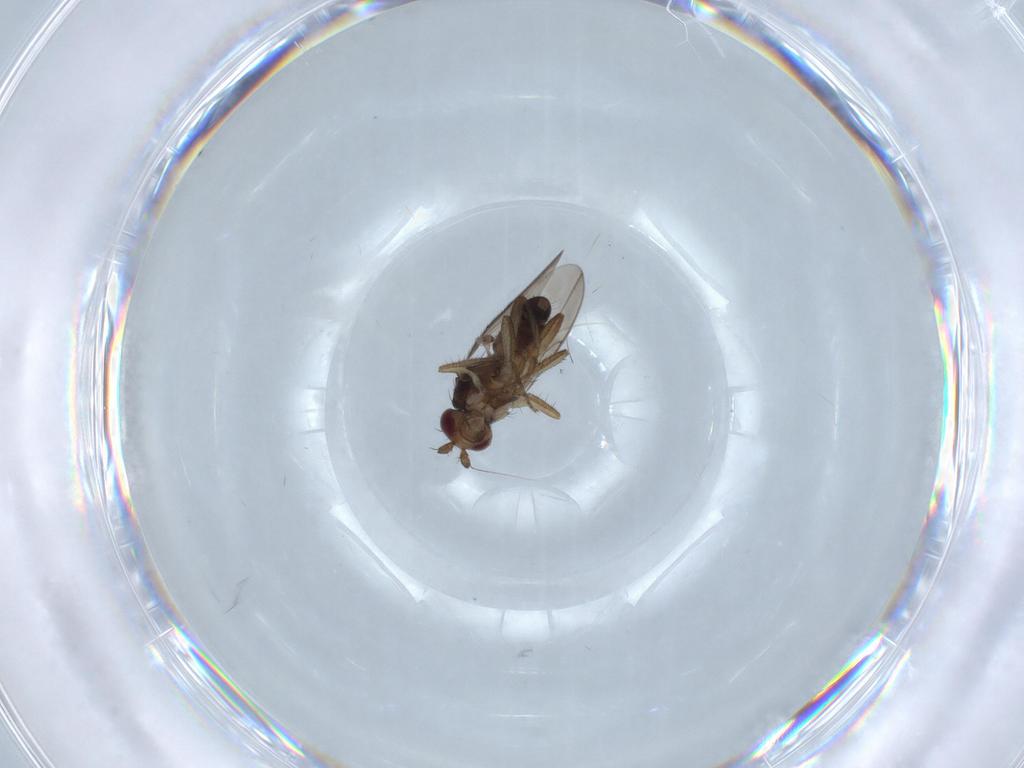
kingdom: Animalia
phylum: Arthropoda
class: Insecta
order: Diptera
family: Sphaeroceridae
